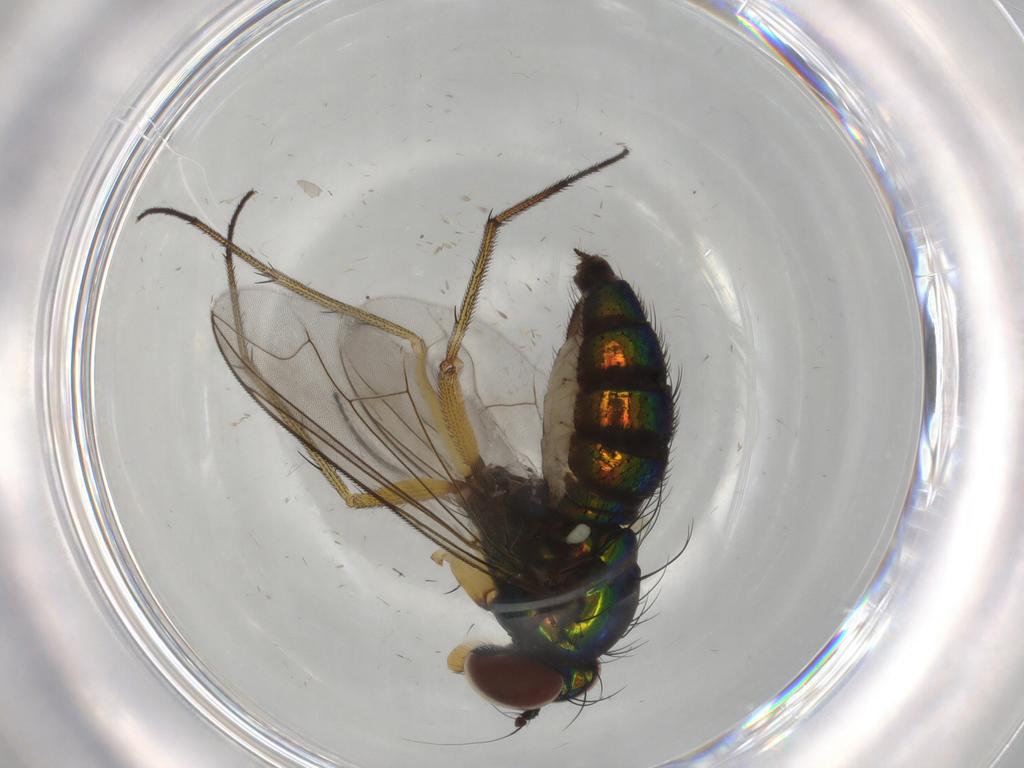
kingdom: Animalia
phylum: Arthropoda
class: Insecta
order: Diptera
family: Dolichopodidae
